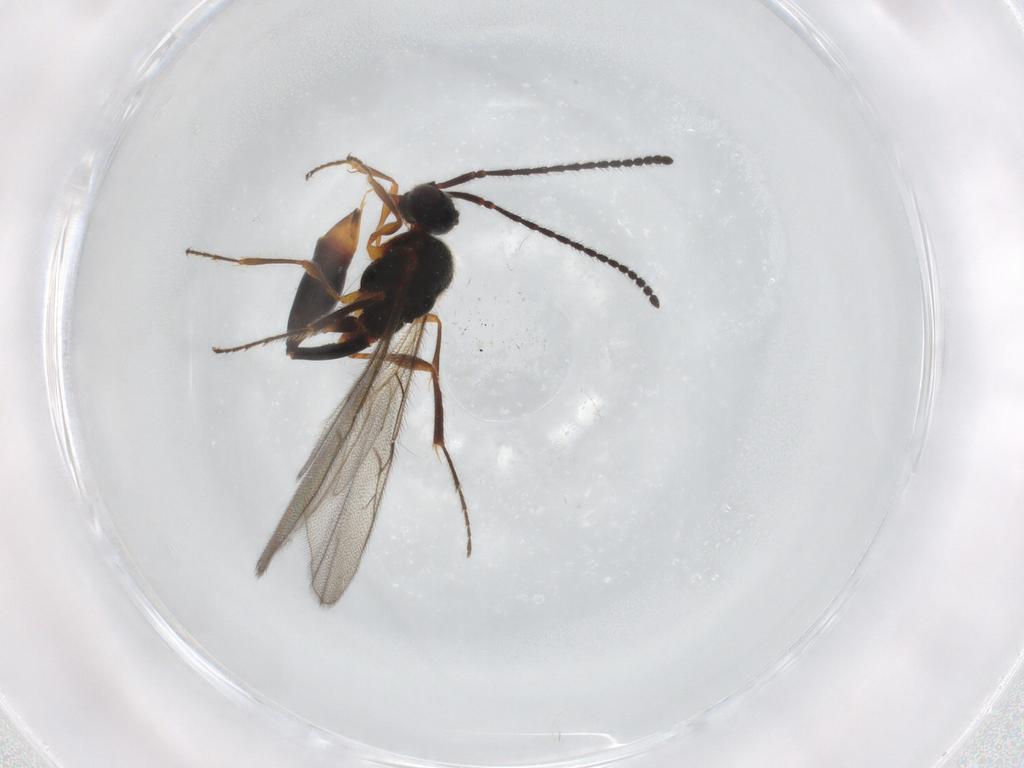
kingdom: Animalia
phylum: Arthropoda
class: Insecta
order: Hymenoptera
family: Diapriidae
